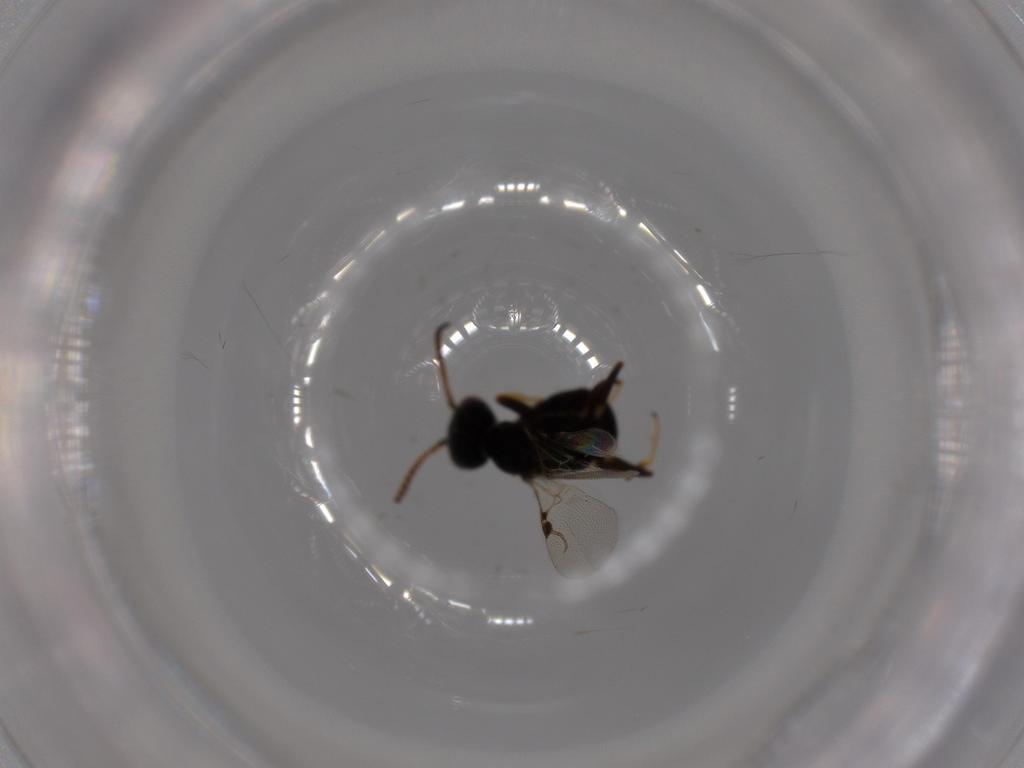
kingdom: Animalia
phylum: Arthropoda
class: Insecta
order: Hymenoptera
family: Bethylidae
